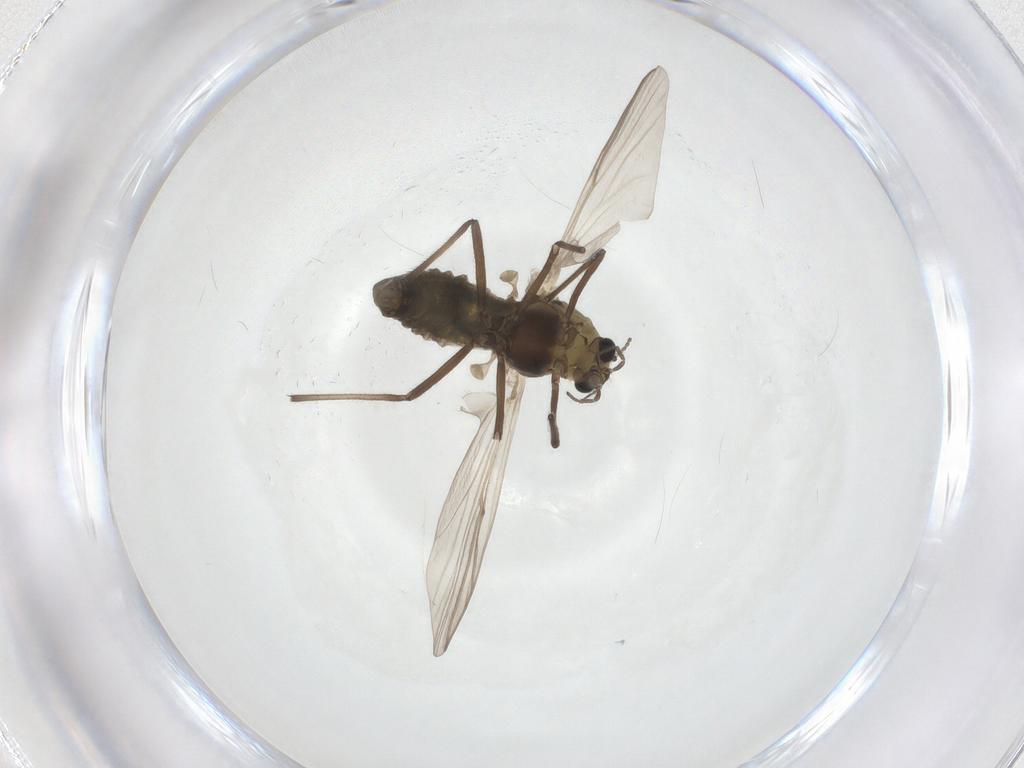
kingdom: Animalia
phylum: Arthropoda
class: Insecta
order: Diptera
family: Chironomidae
